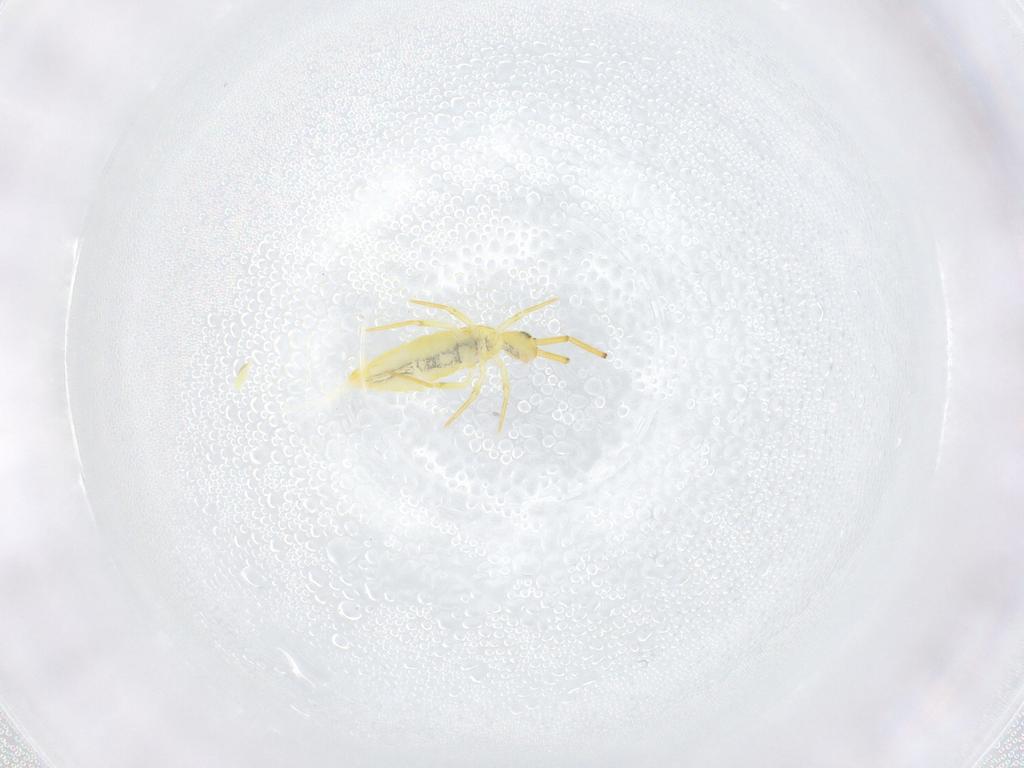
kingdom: Animalia
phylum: Arthropoda
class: Collembola
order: Entomobryomorpha
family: Paronellidae
